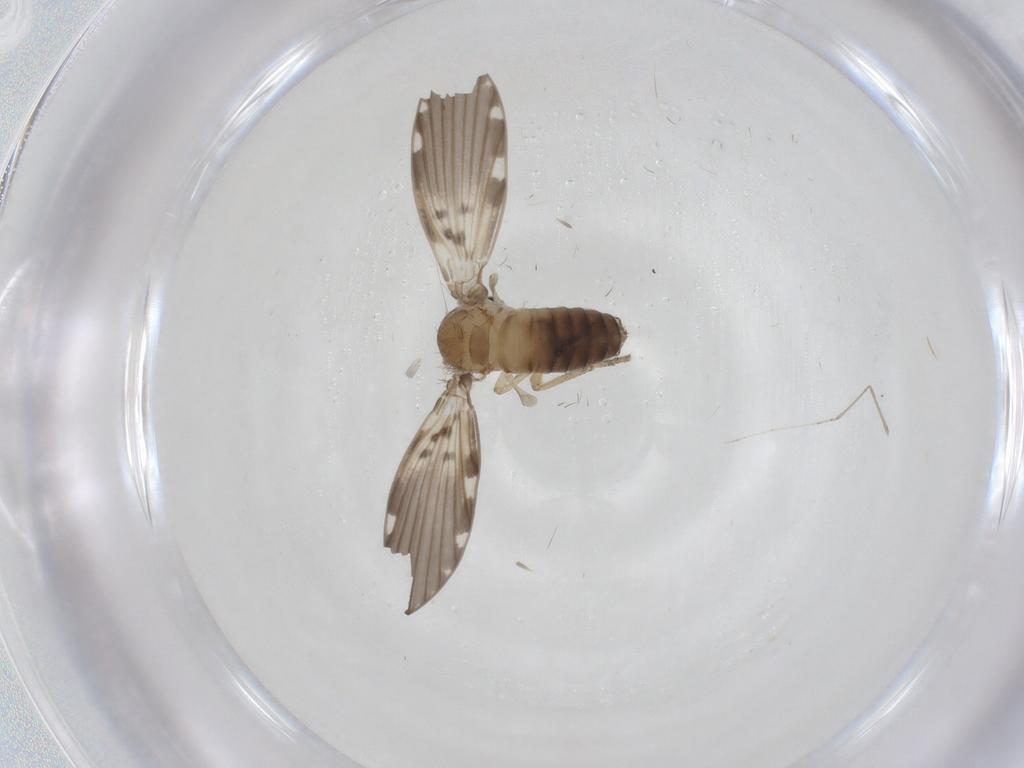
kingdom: Animalia
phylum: Arthropoda
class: Insecta
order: Diptera
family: Psychodidae
